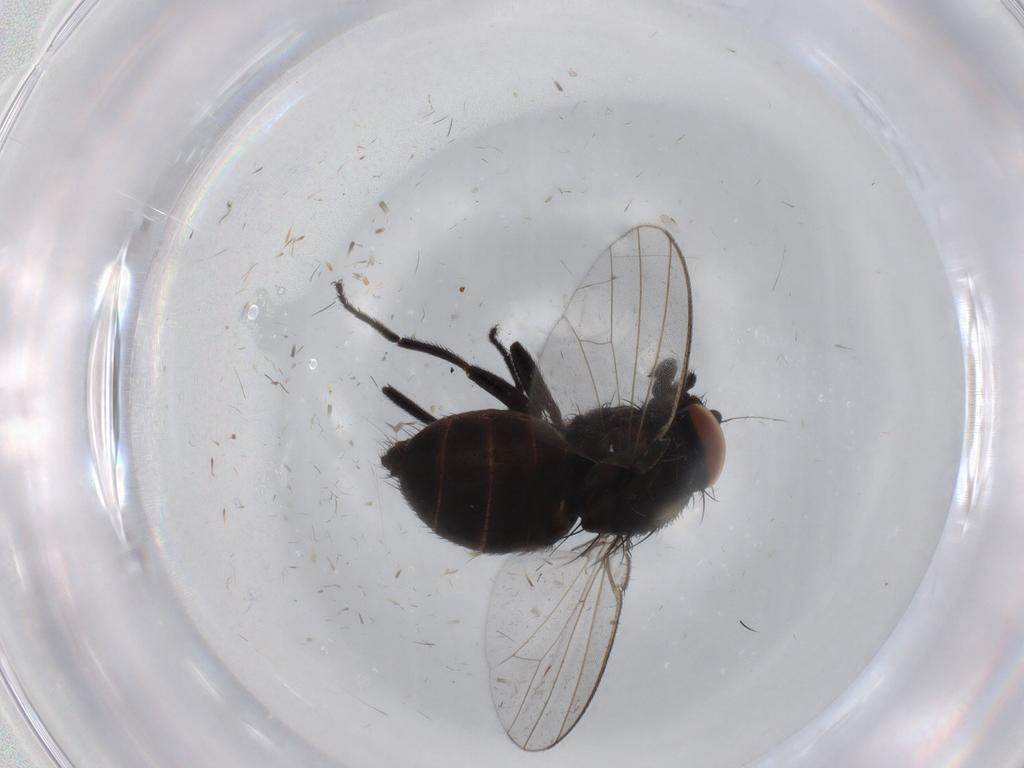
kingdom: Animalia
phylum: Arthropoda
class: Insecta
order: Diptera
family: Milichiidae
